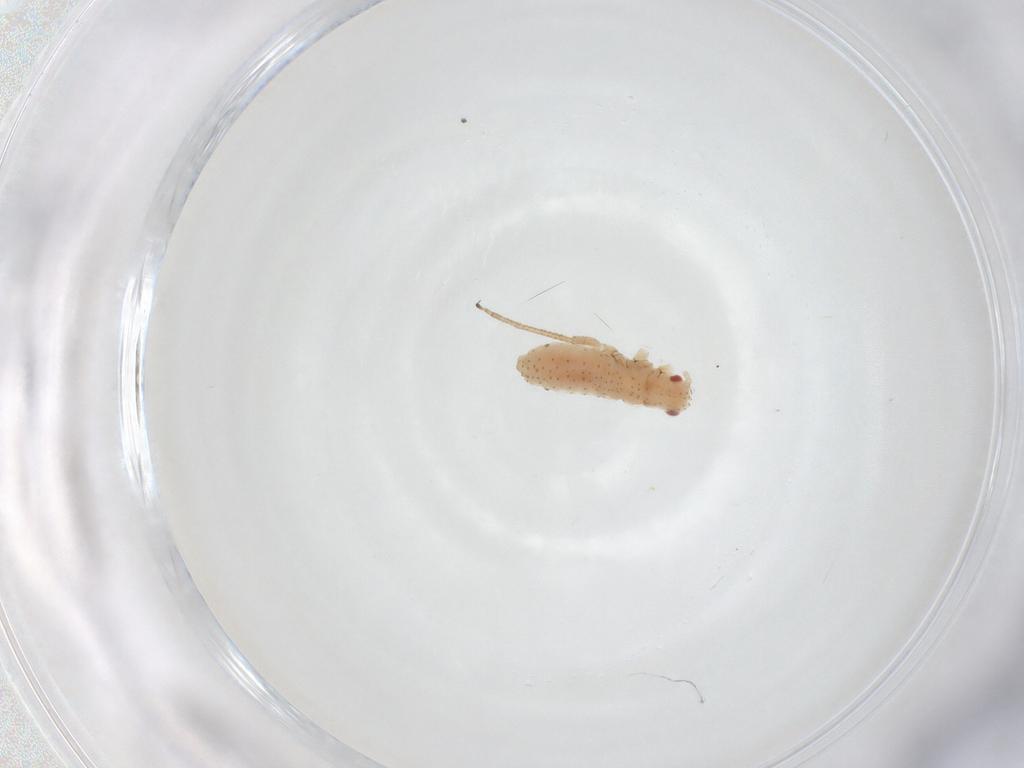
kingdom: Animalia
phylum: Arthropoda
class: Insecta
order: Hemiptera
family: Aphididae
